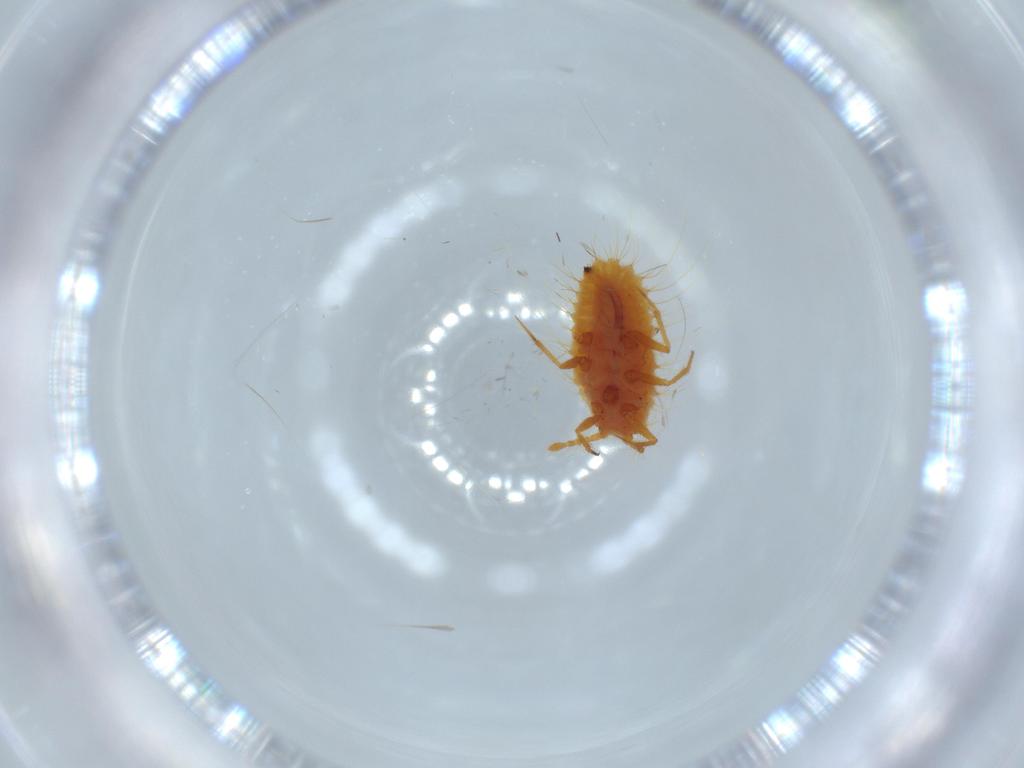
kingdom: Animalia
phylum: Arthropoda
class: Insecta
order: Hemiptera
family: Coccoidea_incertae_sedis
